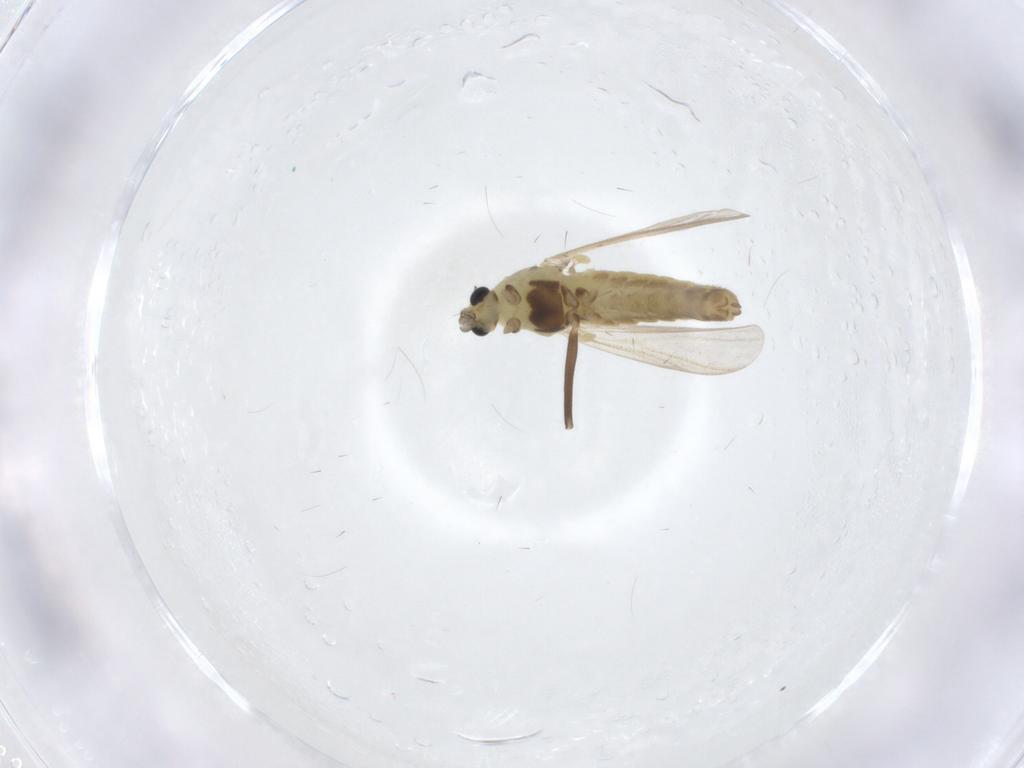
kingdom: Animalia
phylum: Arthropoda
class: Insecta
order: Diptera
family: Chironomidae
